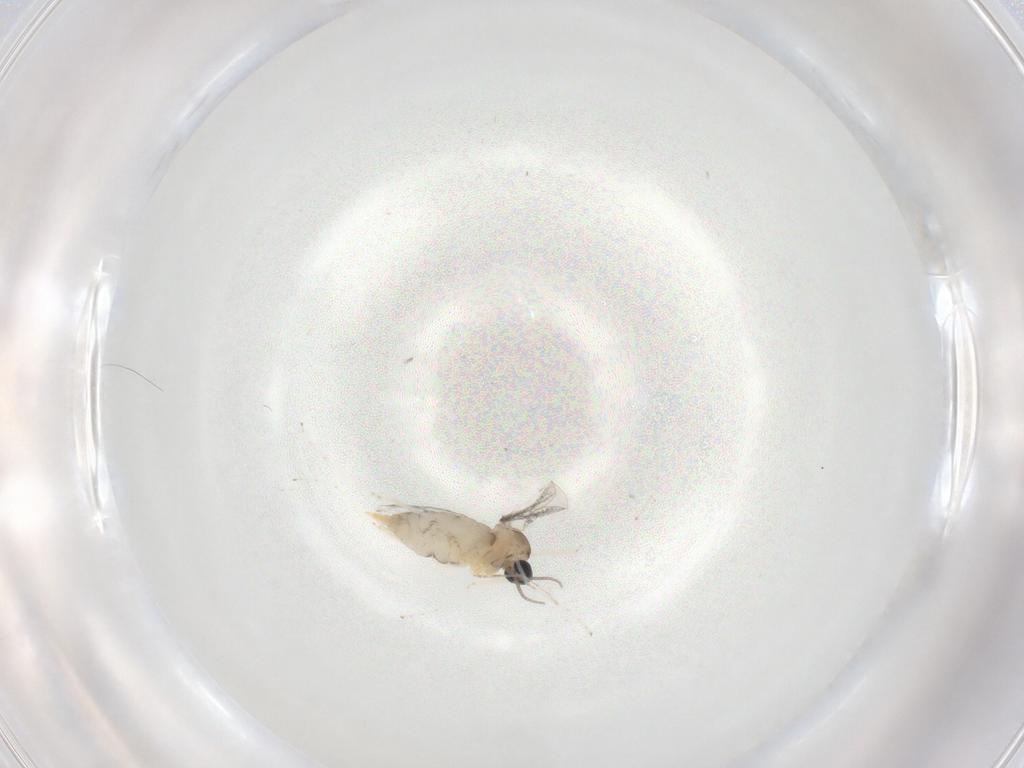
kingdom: Animalia
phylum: Arthropoda
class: Insecta
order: Diptera
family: Cecidomyiidae
